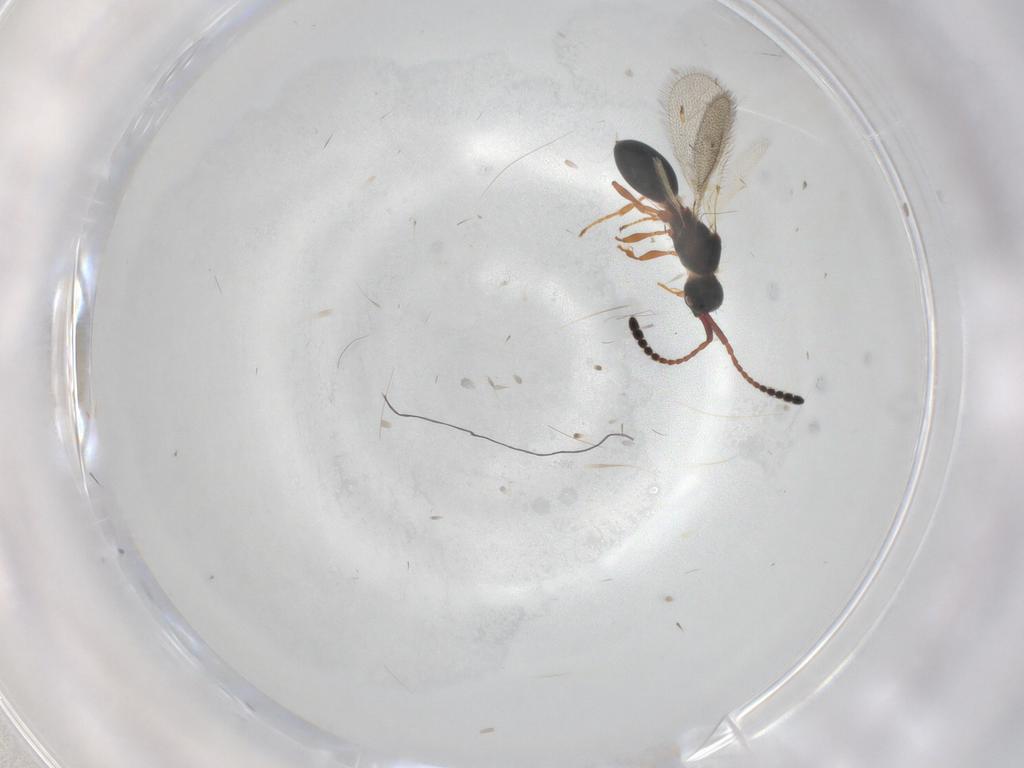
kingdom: Animalia
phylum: Arthropoda
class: Insecta
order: Hymenoptera
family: Diapriidae
